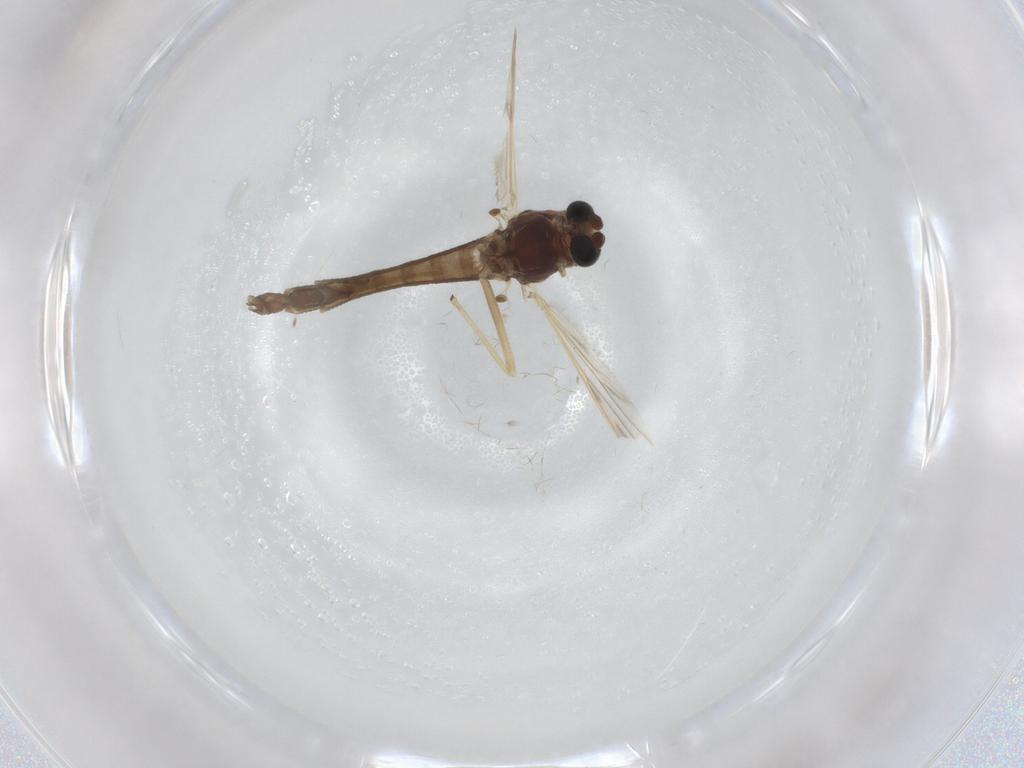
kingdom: Animalia
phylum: Arthropoda
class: Insecta
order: Diptera
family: Chironomidae
